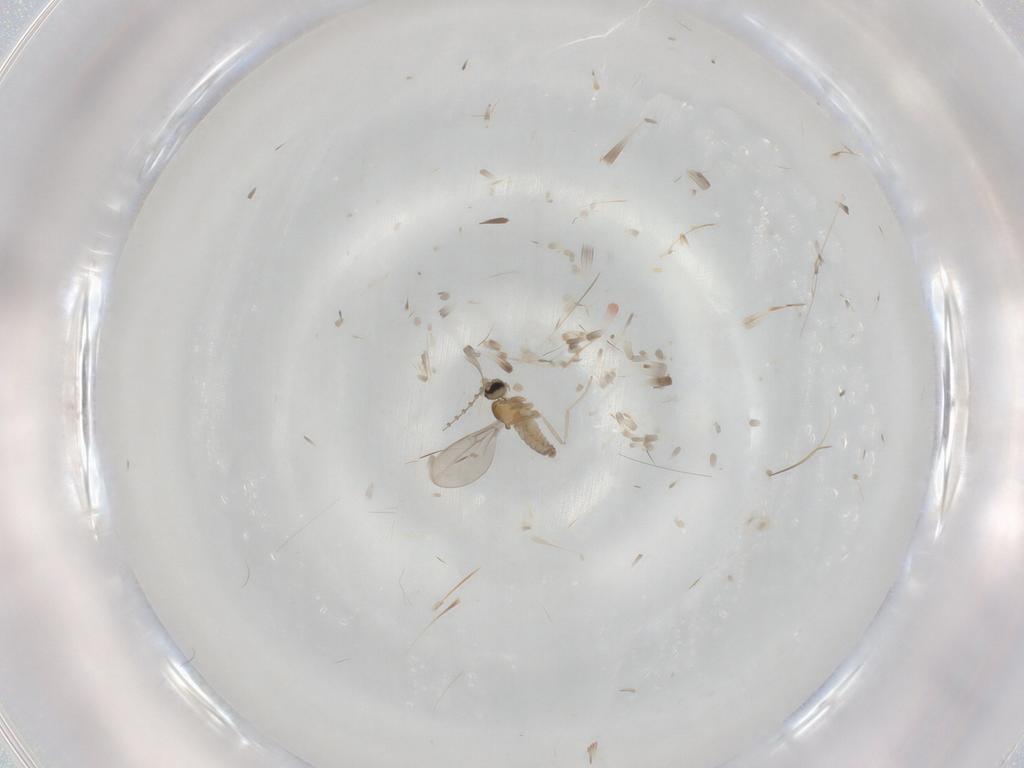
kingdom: Animalia
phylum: Arthropoda
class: Insecta
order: Diptera
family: Cecidomyiidae
